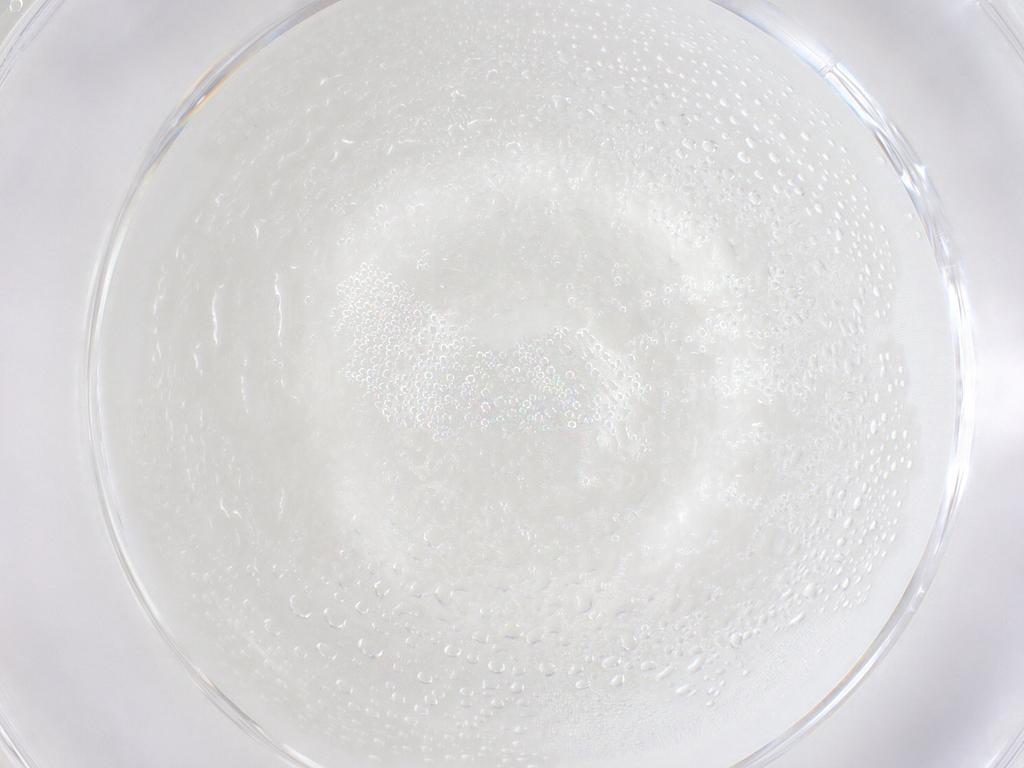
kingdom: Animalia
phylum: Arthropoda
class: Insecta
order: Diptera
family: Sciaridae
